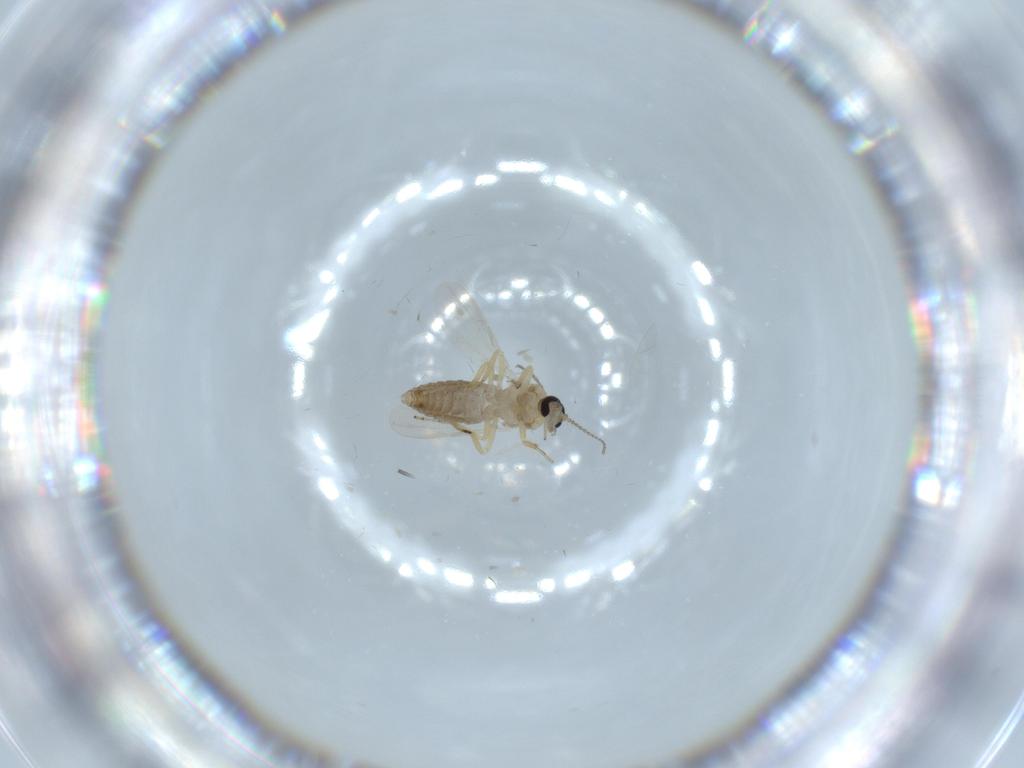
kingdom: Animalia
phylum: Arthropoda
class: Insecta
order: Diptera
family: Ceratopogonidae
